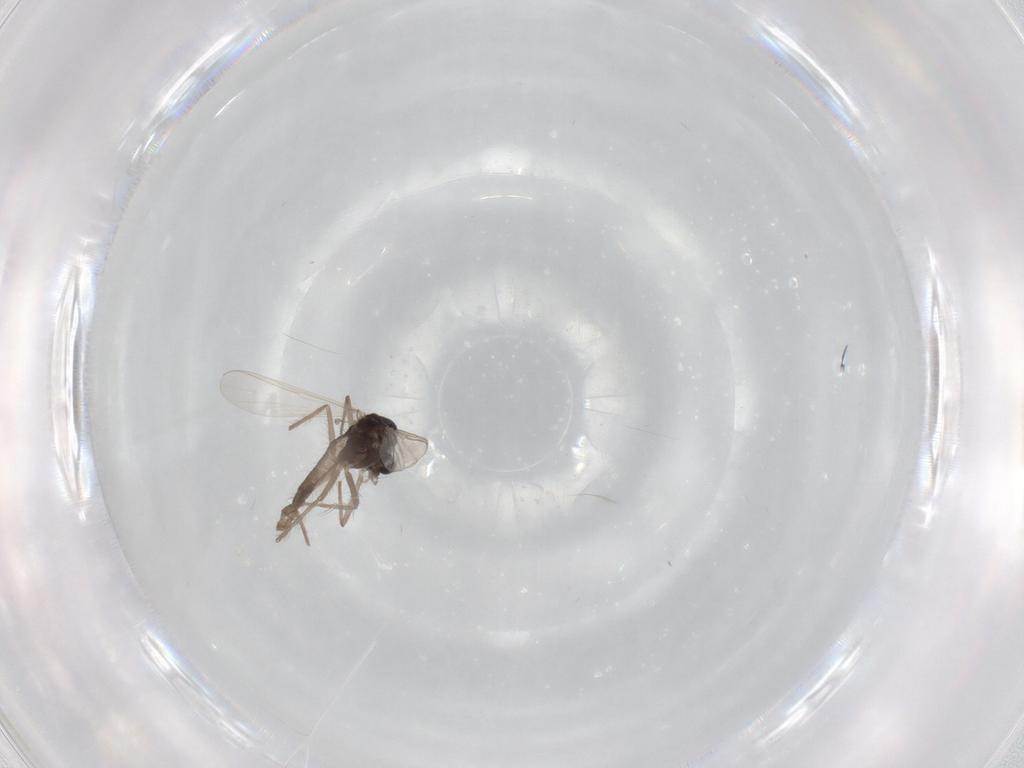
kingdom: Animalia
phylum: Arthropoda
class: Insecta
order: Diptera
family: Chironomidae
